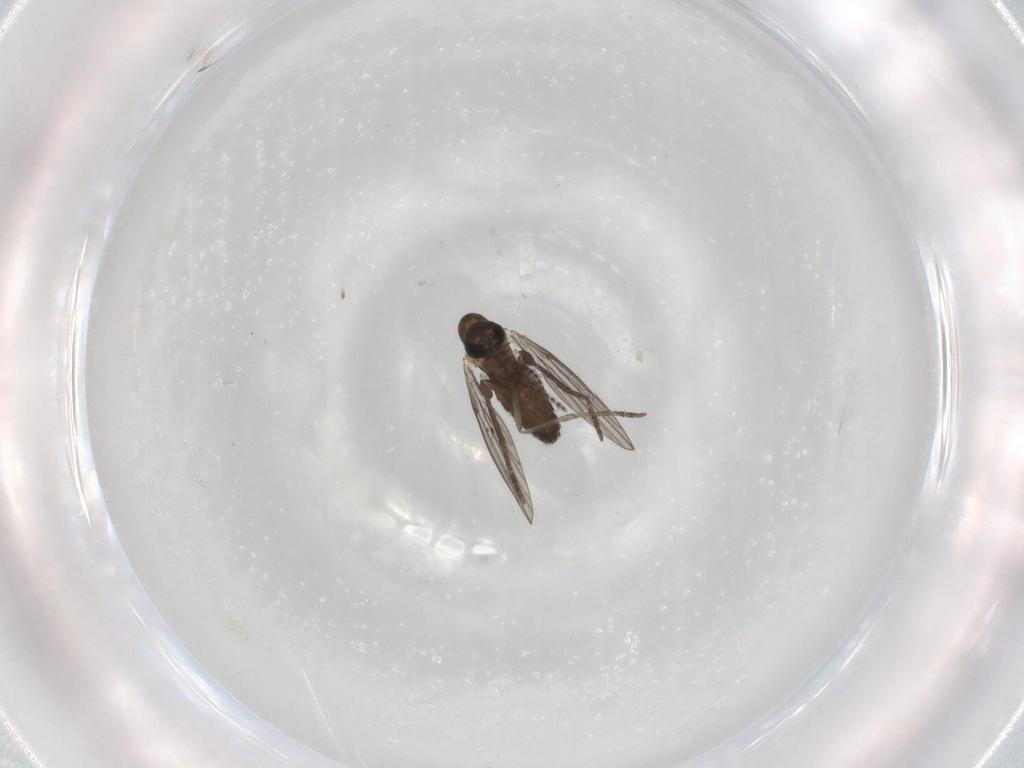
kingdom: Animalia
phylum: Arthropoda
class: Insecta
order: Diptera
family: Cecidomyiidae
